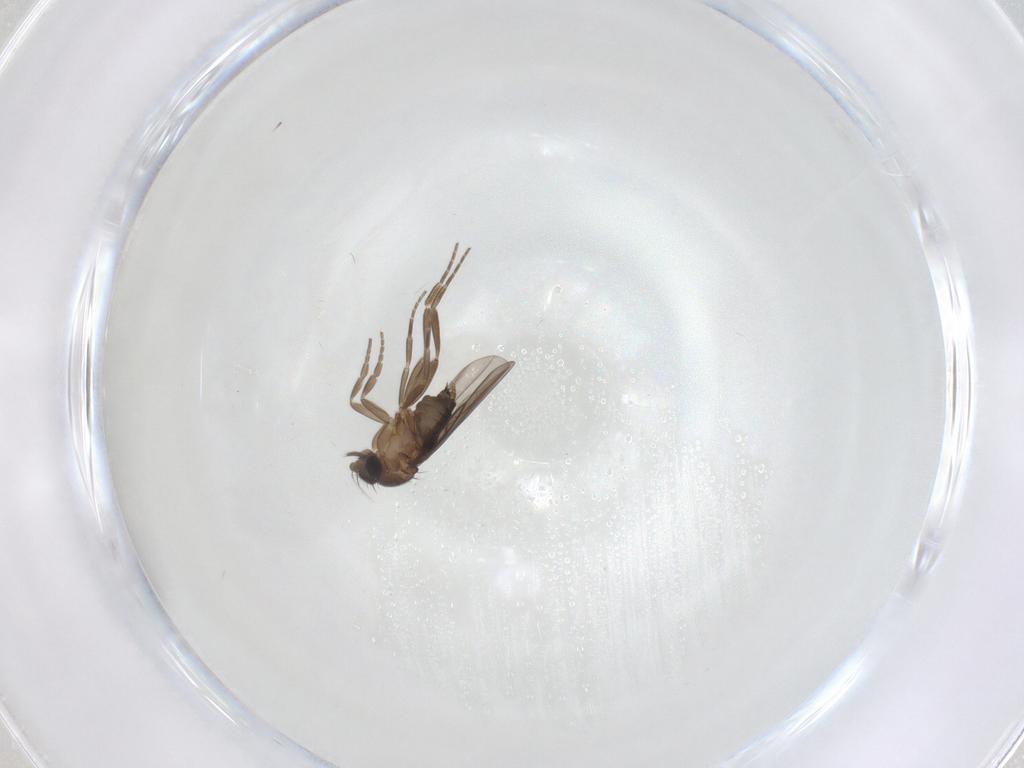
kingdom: Animalia
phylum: Arthropoda
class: Insecta
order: Diptera
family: Phoridae
